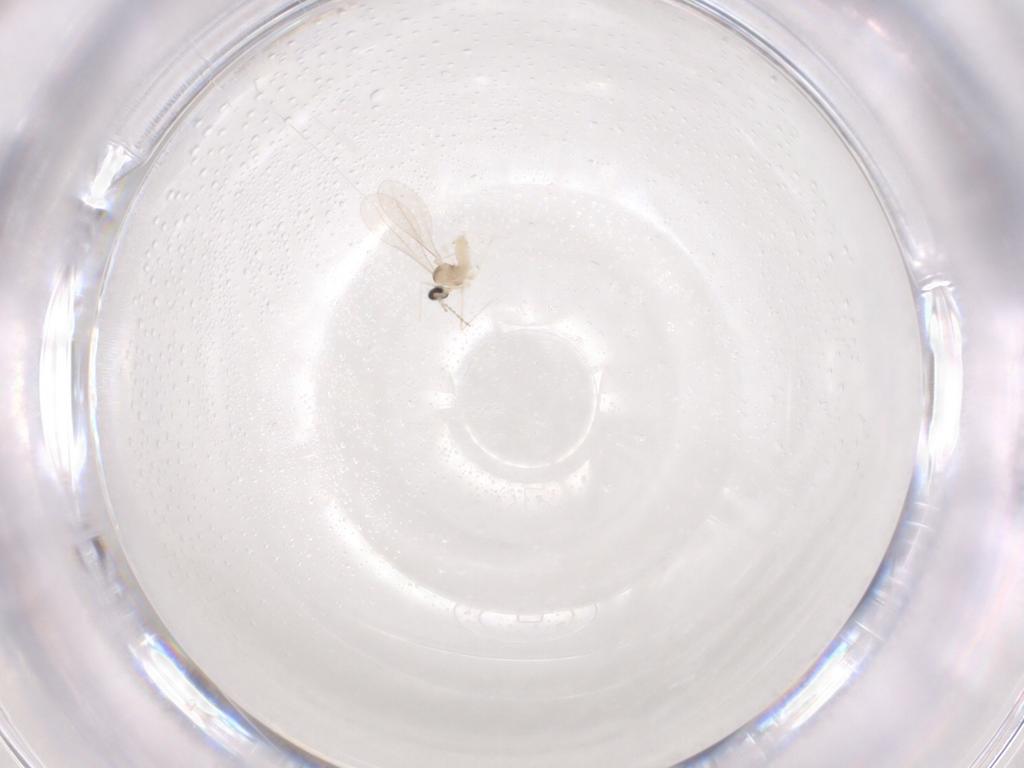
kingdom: Animalia
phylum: Arthropoda
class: Insecta
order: Diptera
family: Cecidomyiidae
